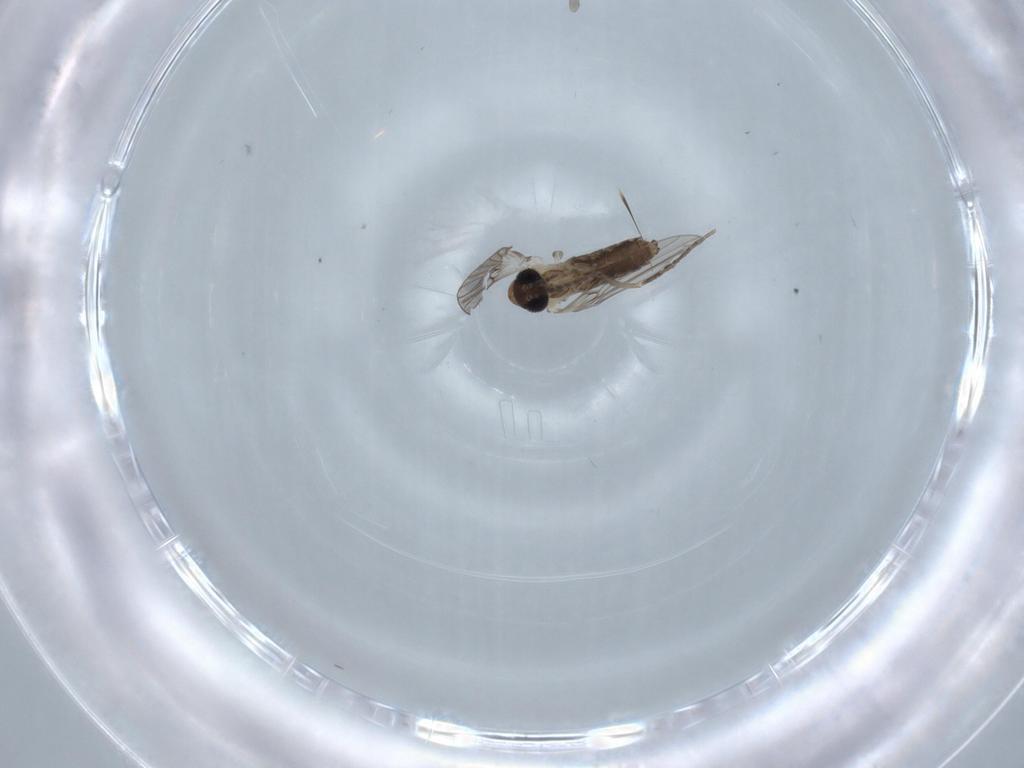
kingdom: Animalia
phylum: Arthropoda
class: Insecta
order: Diptera
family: Psychodidae
